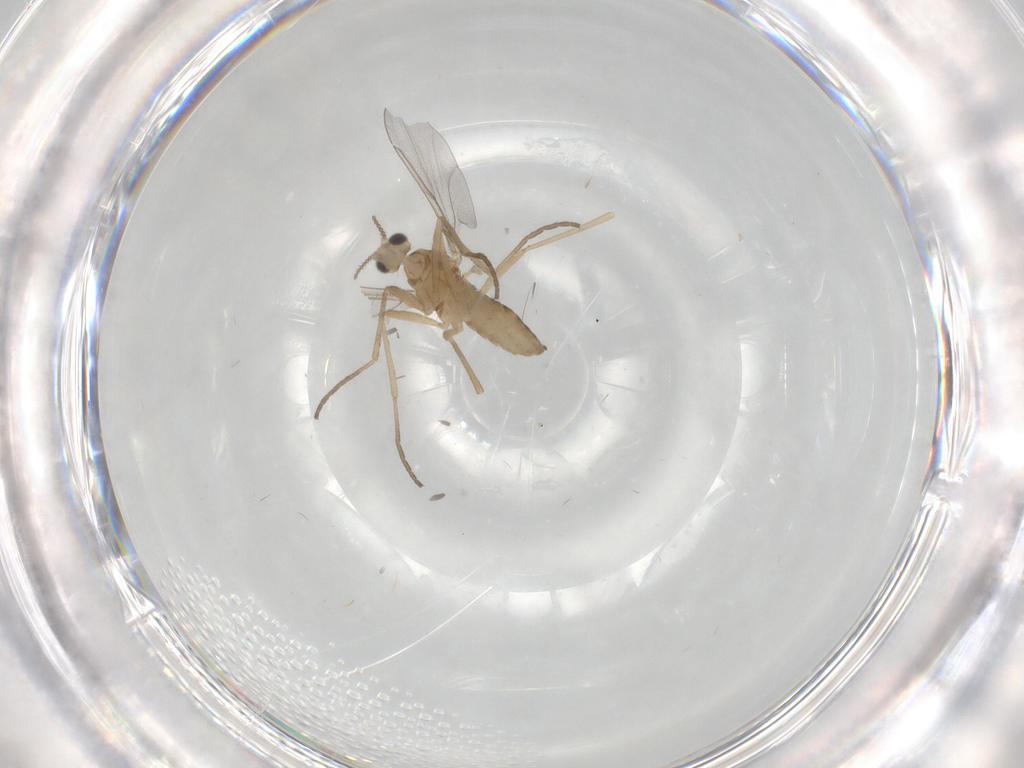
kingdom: Animalia
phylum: Arthropoda
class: Insecta
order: Diptera
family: Cecidomyiidae
